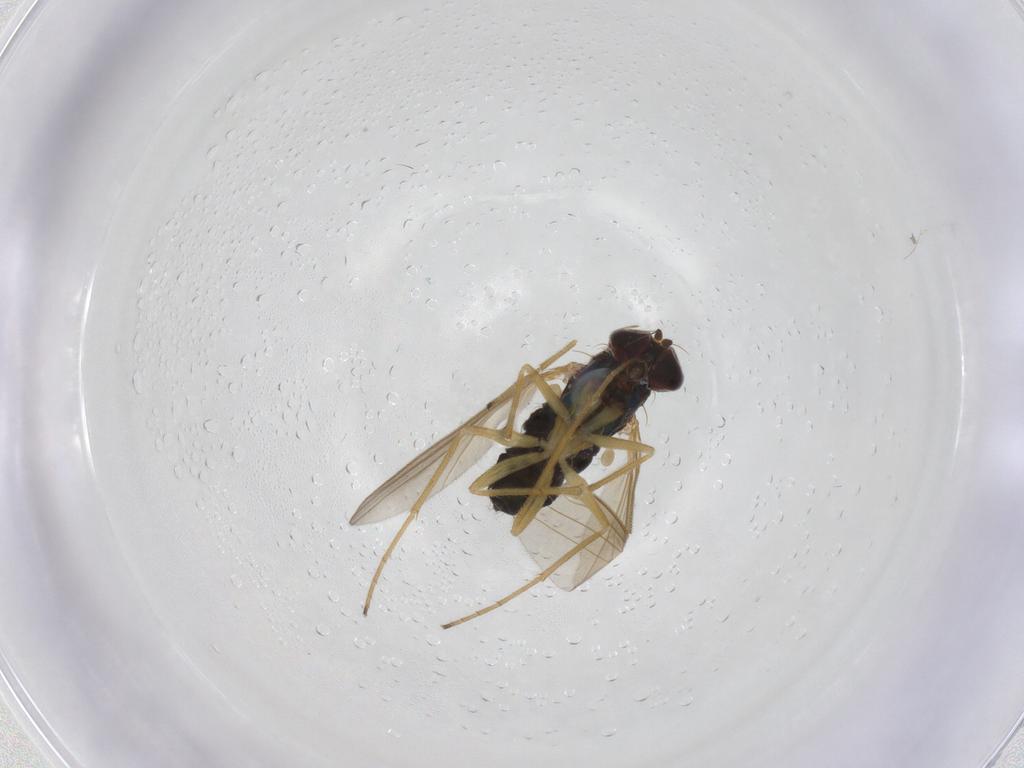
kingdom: Animalia
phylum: Arthropoda
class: Insecta
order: Diptera
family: Dolichopodidae
